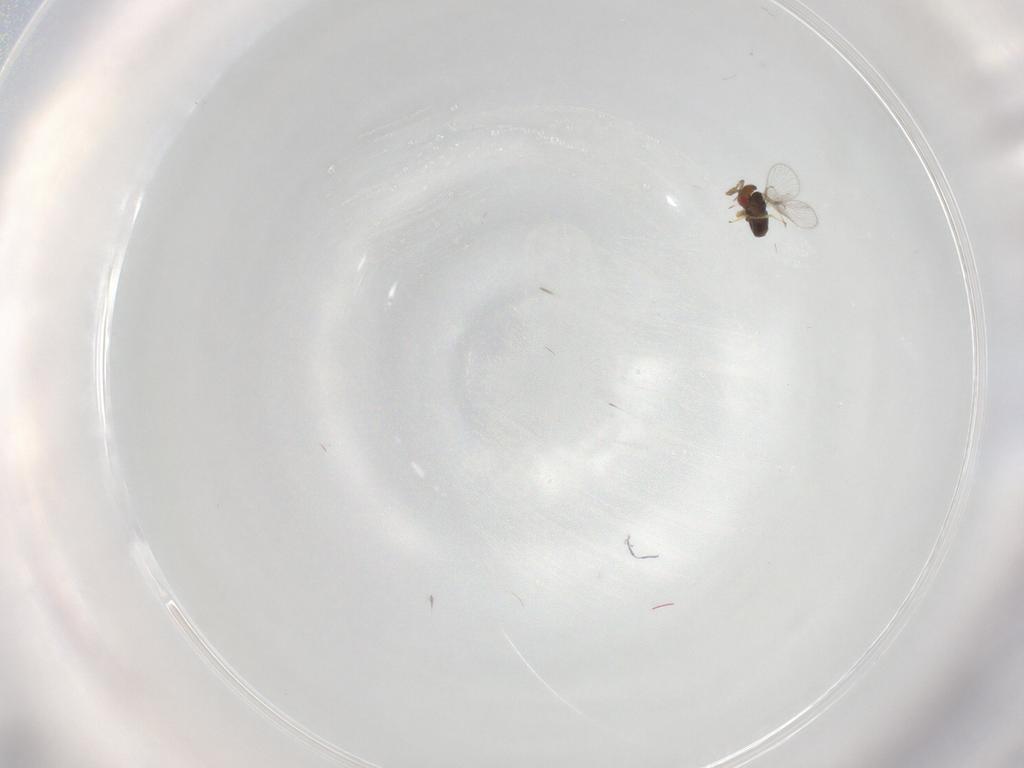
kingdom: Animalia
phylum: Arthropoda
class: Insecta
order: Hymenoptera
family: Trichogrammatidae
